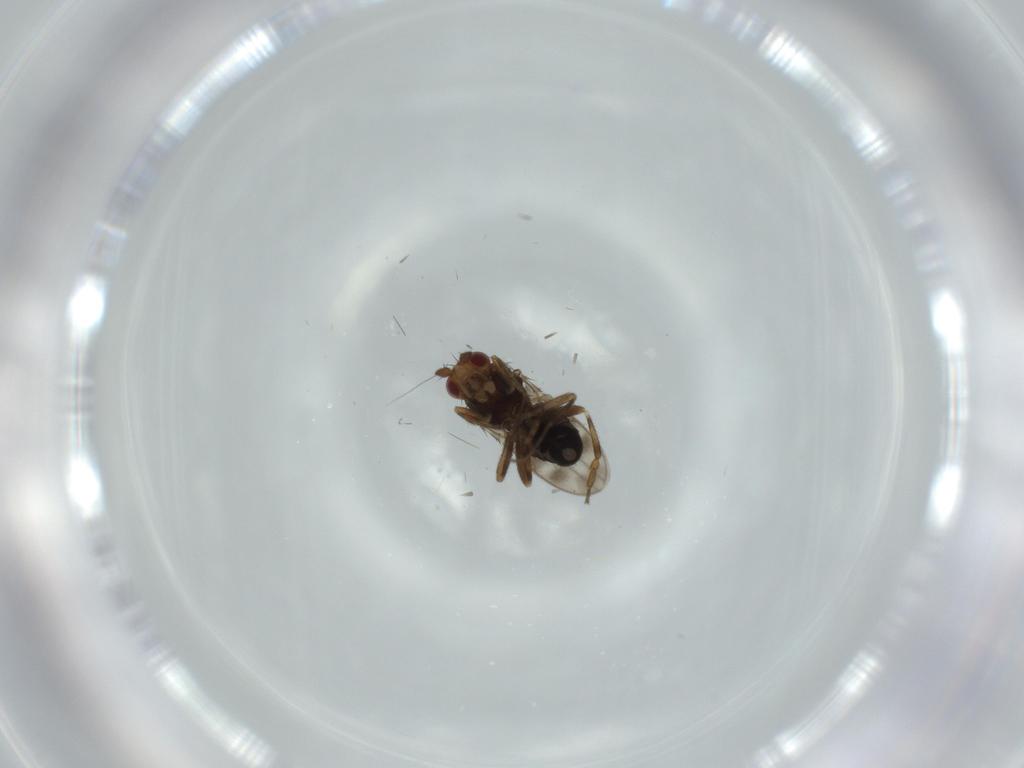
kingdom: Animalia
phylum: Arthropoda
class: Insecta
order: Diptera
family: Sphaeroceridae
